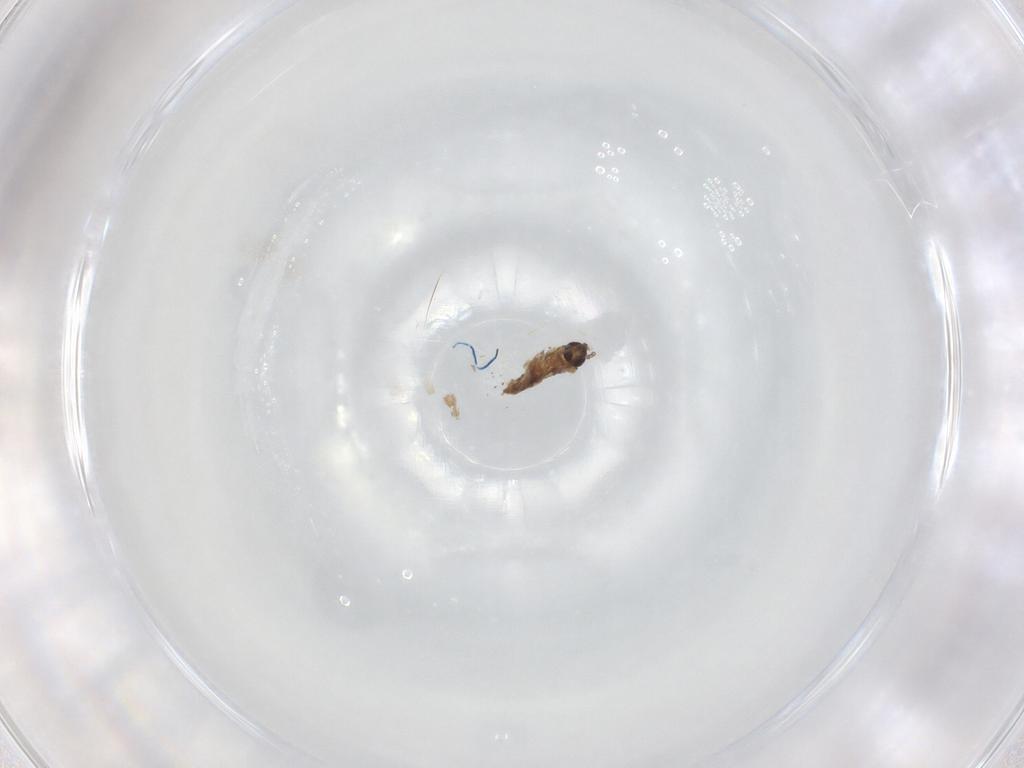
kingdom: Animalia
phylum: Arthropoda
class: Insecta
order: Diptera
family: Psychodidae
